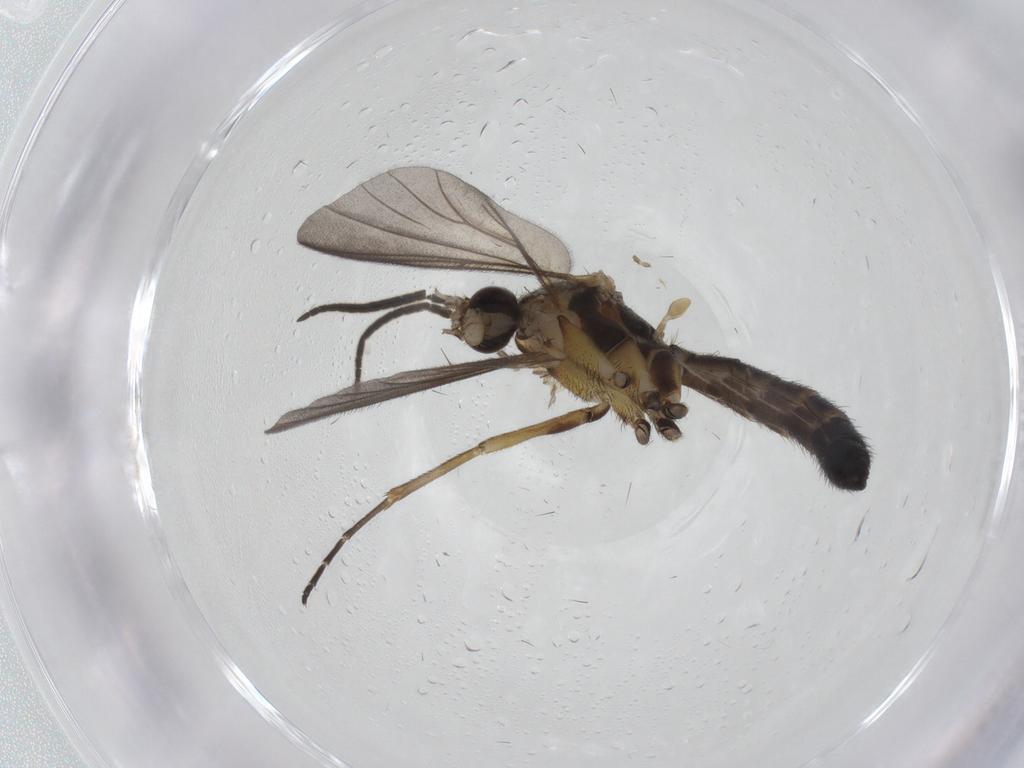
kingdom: Animalia
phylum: Arthropoda
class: Insecta
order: Diptera
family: Mycetophilidae
